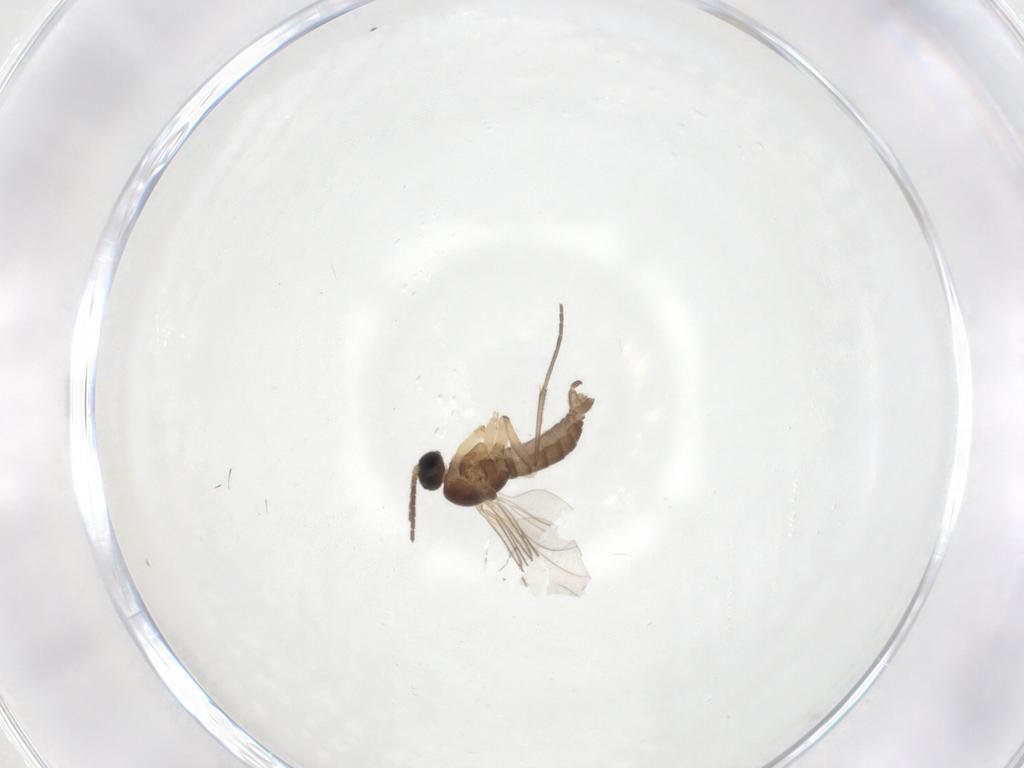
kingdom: Animalia
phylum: Arthropoda
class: Insecta
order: Diptera
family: Sciaridae
